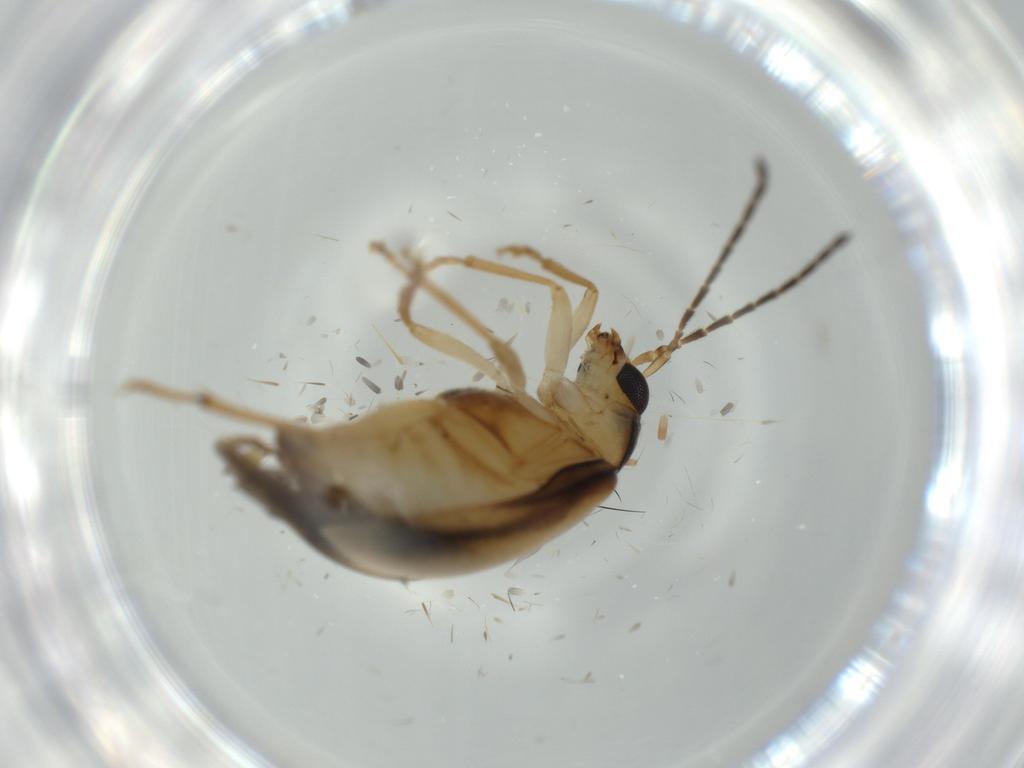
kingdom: Animalia
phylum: Arthropoda
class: Insecta
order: Coleoptera
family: Chrysomelidae
